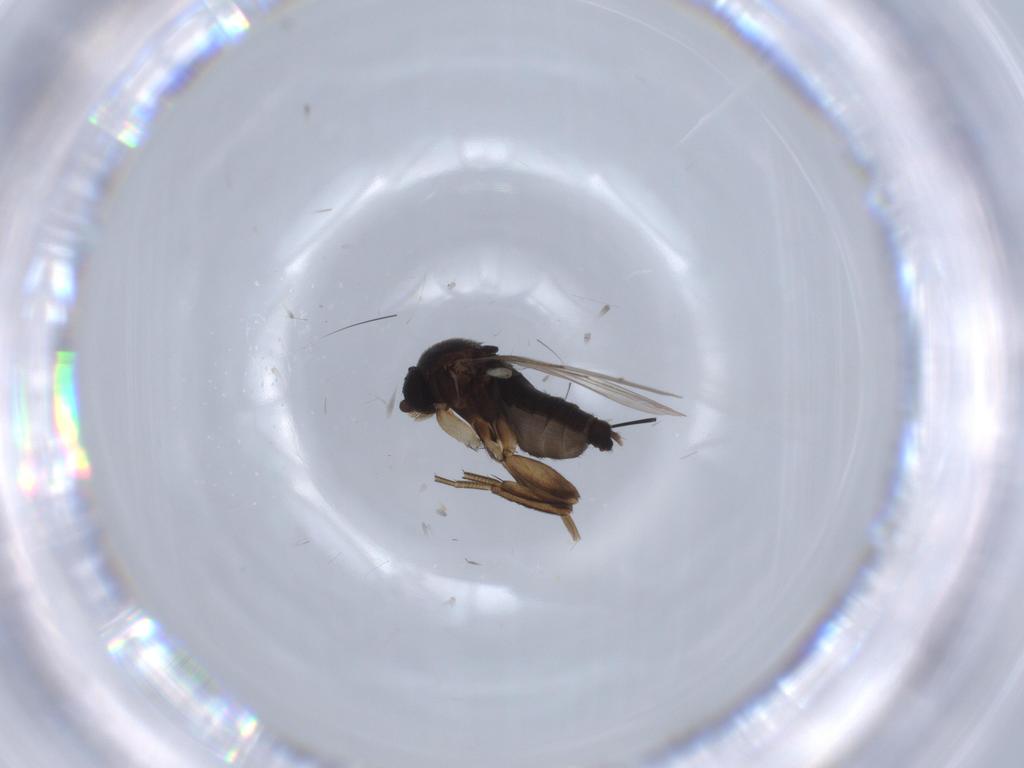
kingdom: Animalia
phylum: Arthropoda
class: Insecta
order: Diptera
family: Phoridae
